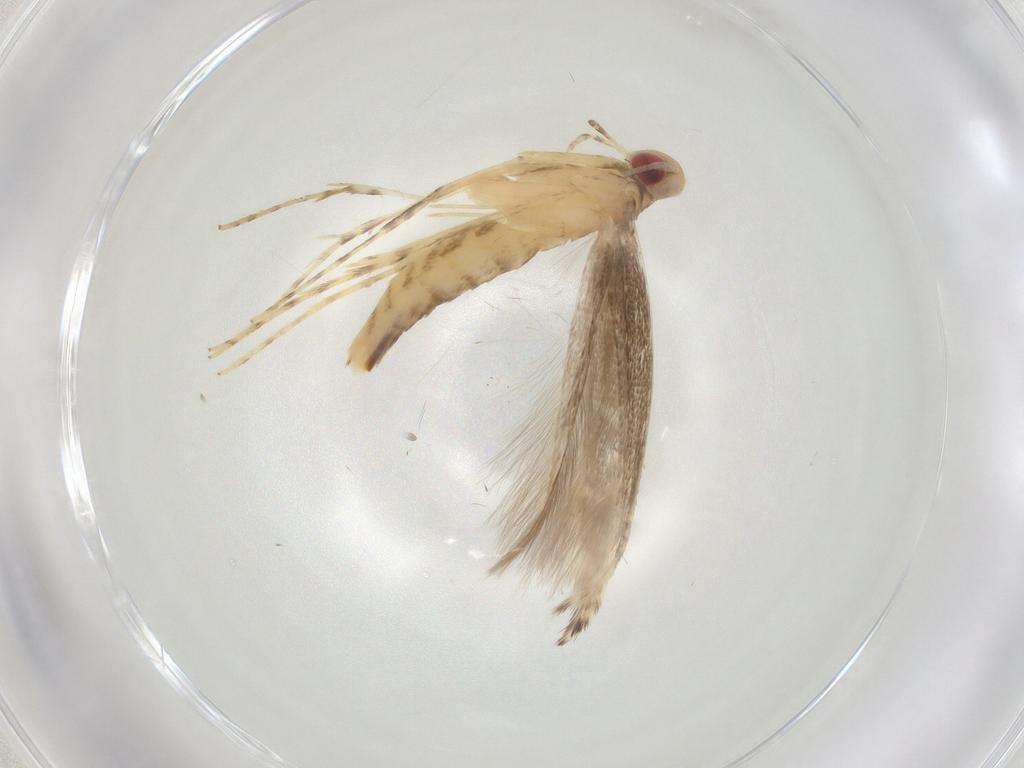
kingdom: Animalia
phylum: Arthropoda
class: Insecta
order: Lepidoptera
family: Gracillariidae
